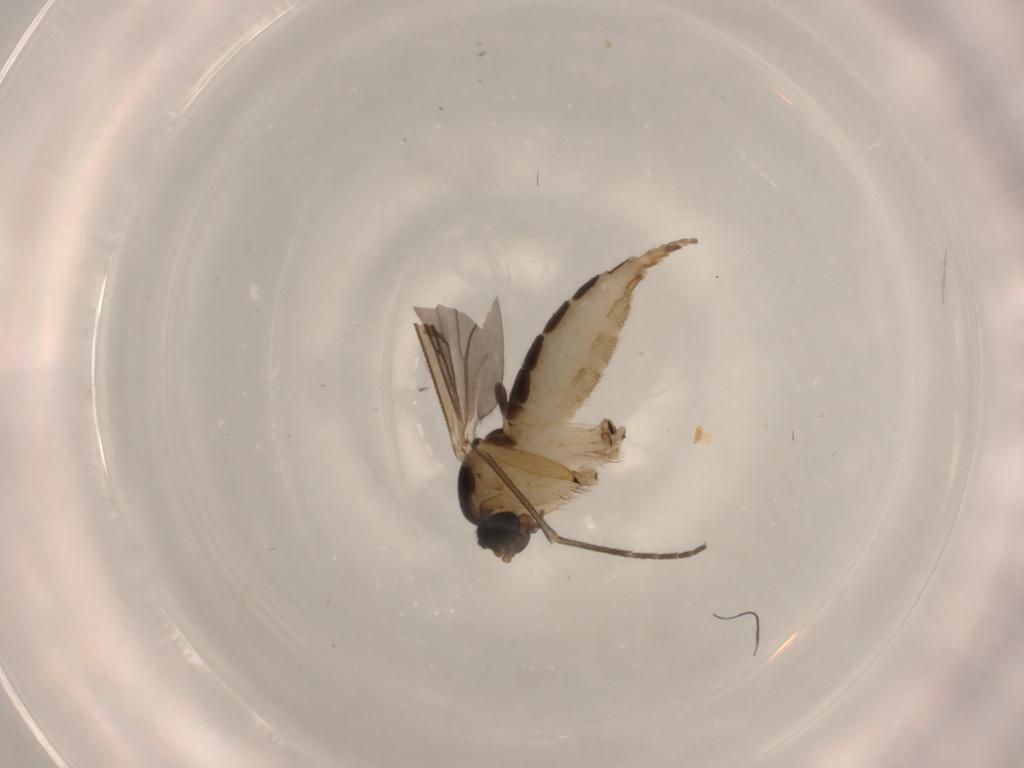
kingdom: Animalia
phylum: Arthropoda
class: Insecta
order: Diptera
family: Sciaridae
